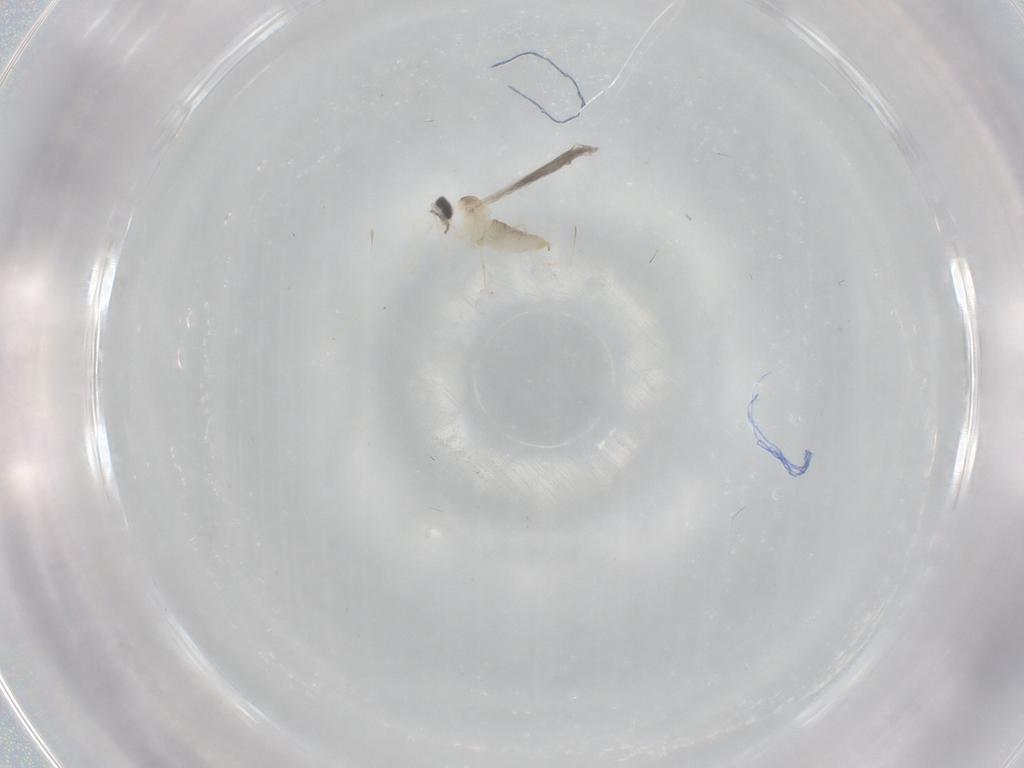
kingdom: Animalia
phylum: Arthropoda
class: Insecta
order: Diptera
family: Cecidomyiidae
